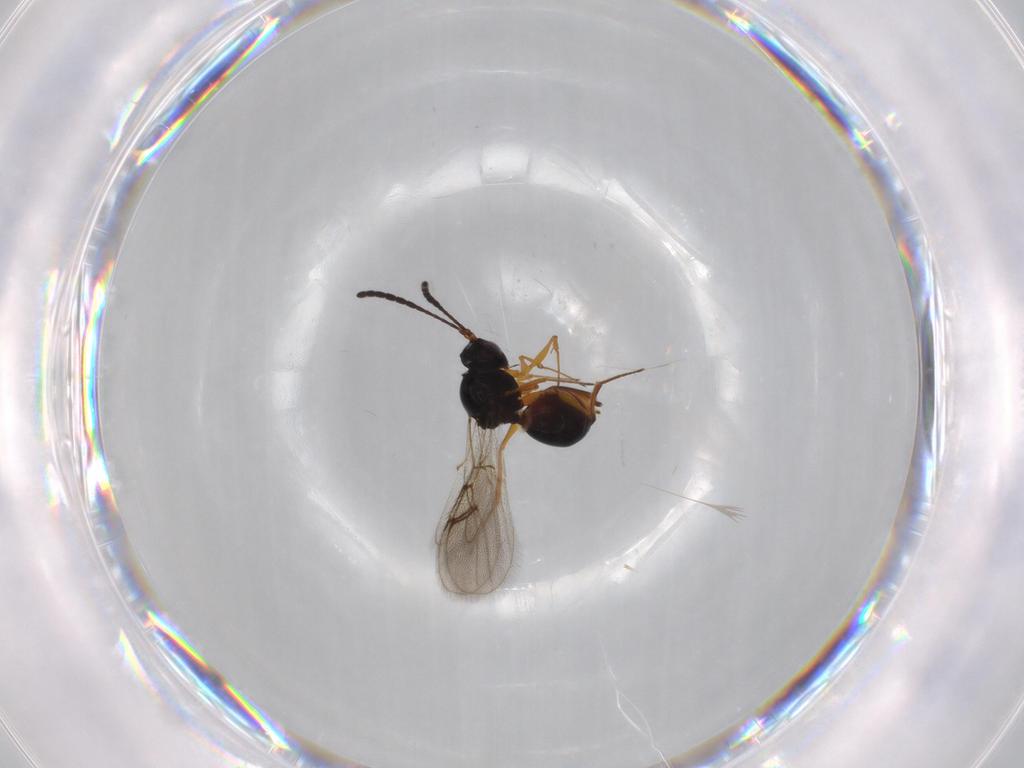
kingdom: Animalia
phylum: Arthropoda
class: Insecta
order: Hymenoptera
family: Figitidae
